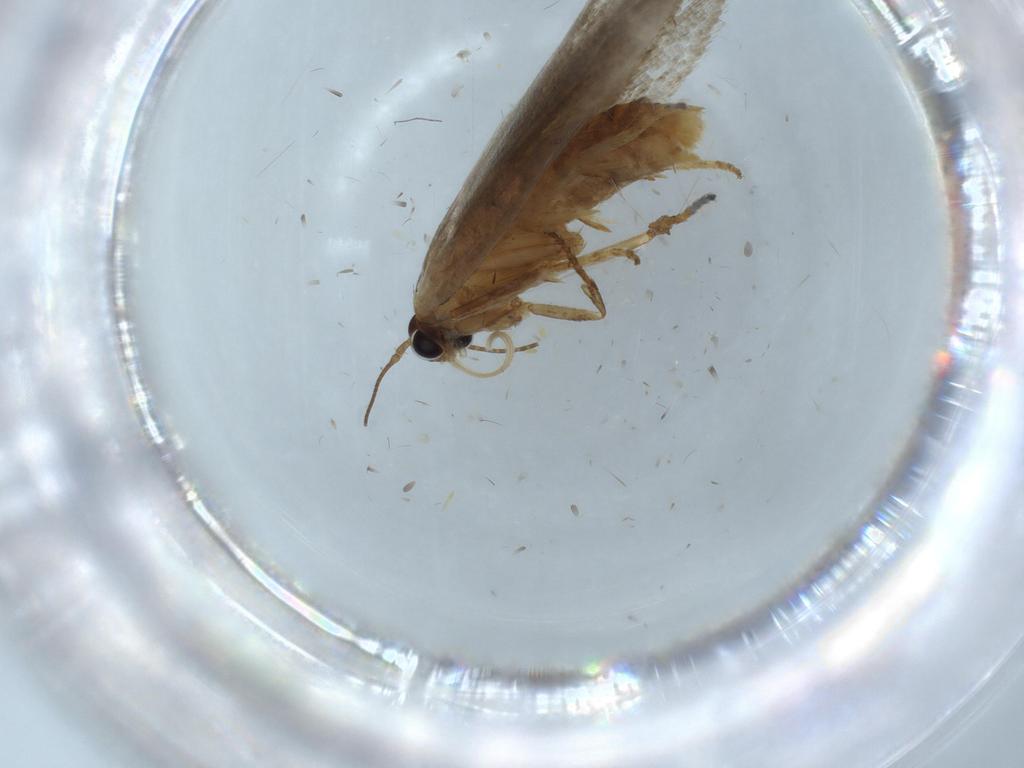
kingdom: Animalia
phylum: Arthropoda
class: Insecta
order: Lepidoptera
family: Oecophoridae
